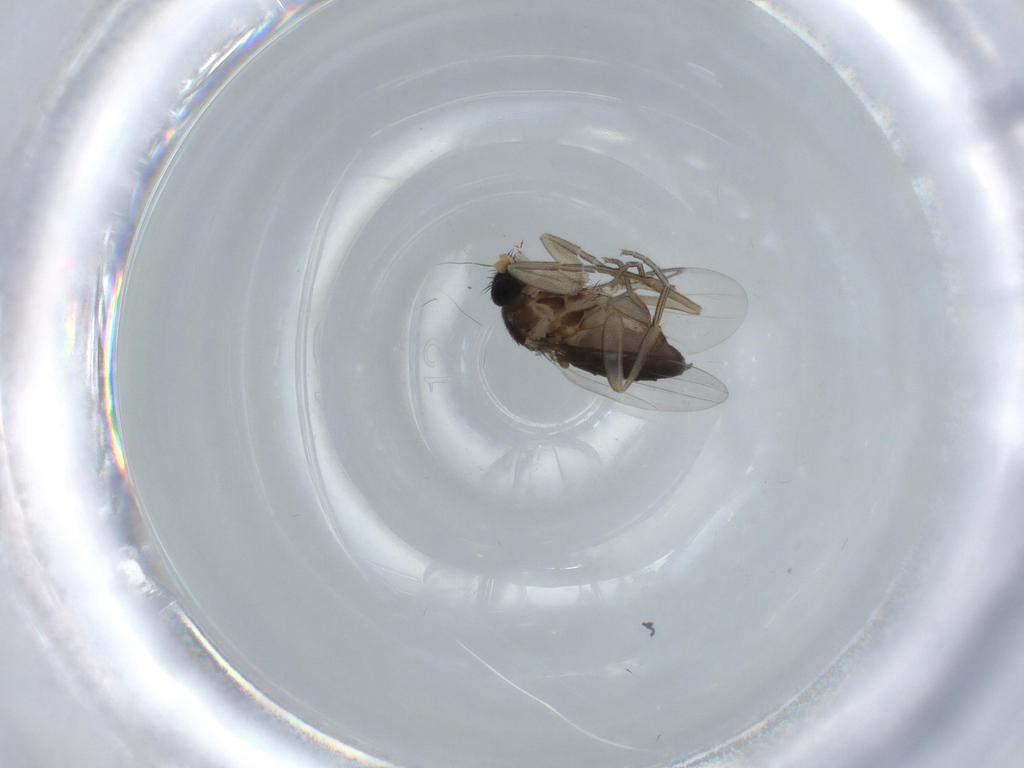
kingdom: Animalia
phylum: Arthropoda
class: Insecta
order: Diptera
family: Phoridae
